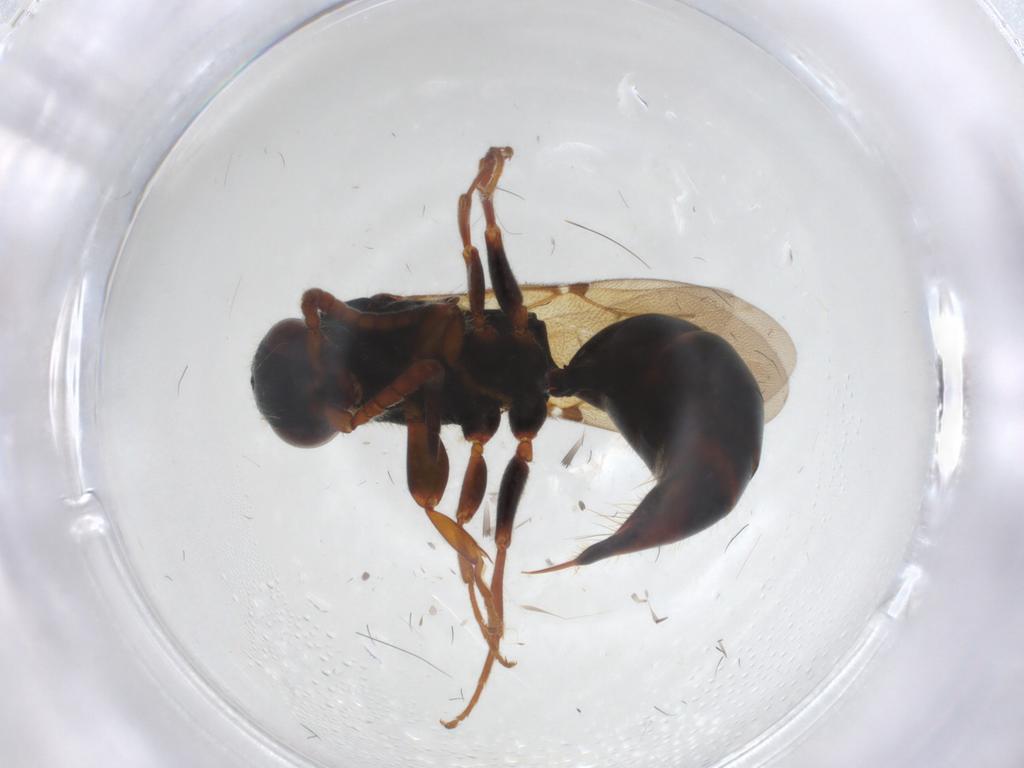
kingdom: Animalia
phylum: Arthropoda
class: Insecta
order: Hymenoptera
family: Bethylidae
